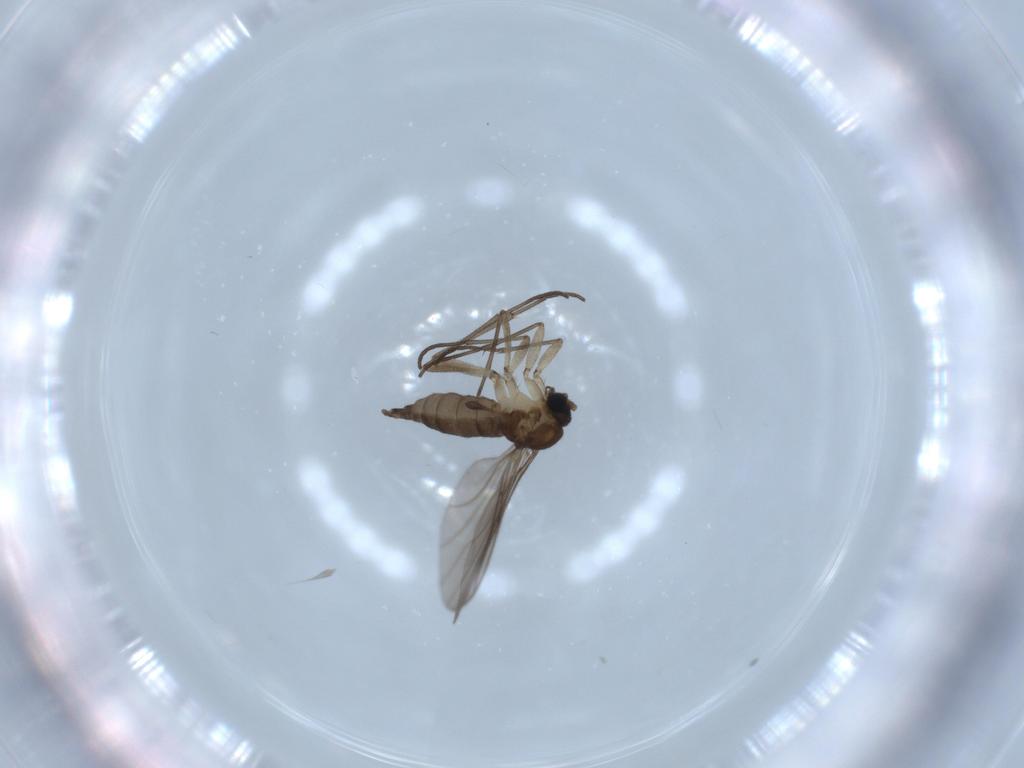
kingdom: Animalia
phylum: Arthropoda
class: Insecta
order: Diptera
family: Sciaridae
